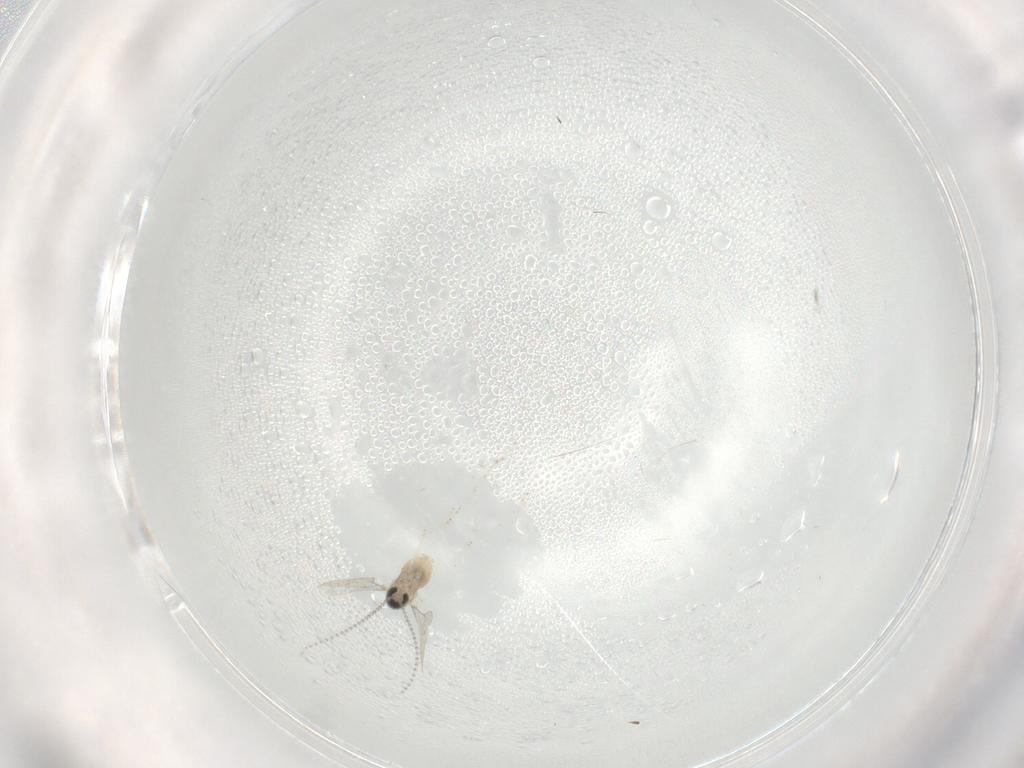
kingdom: Animalia
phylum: Arthropoda
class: Insecta
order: Diptera
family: Cecidomyiidae
